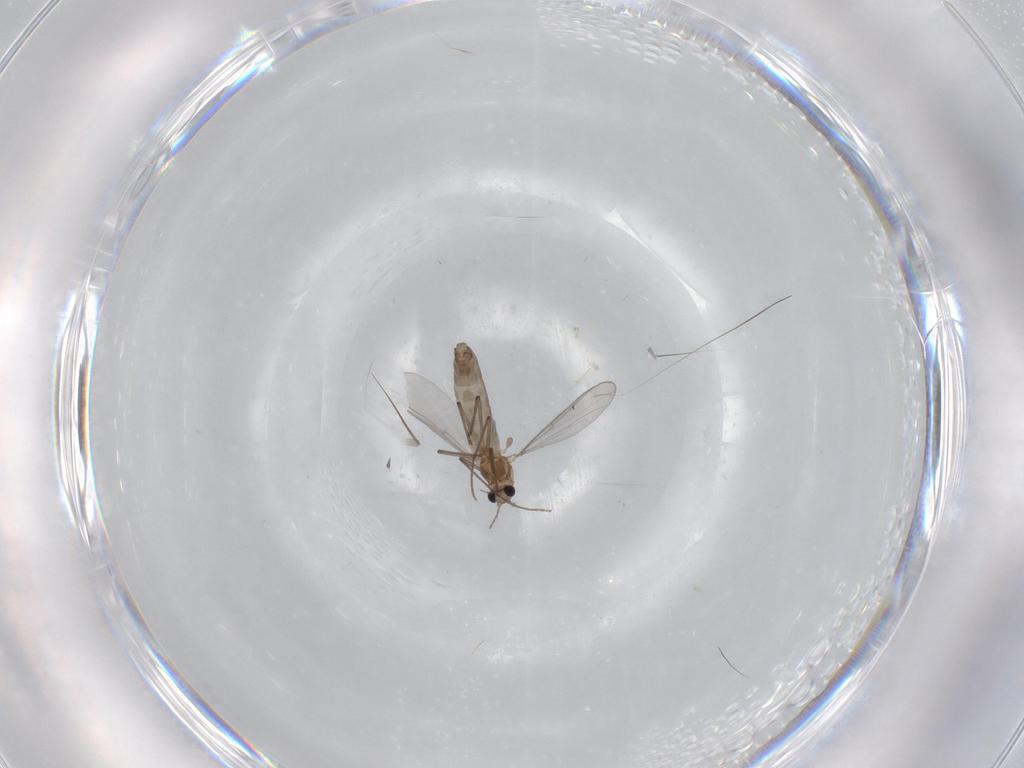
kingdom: Animalia
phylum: Arthropoda
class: Insecta
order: Diptera
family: Chironomidae
